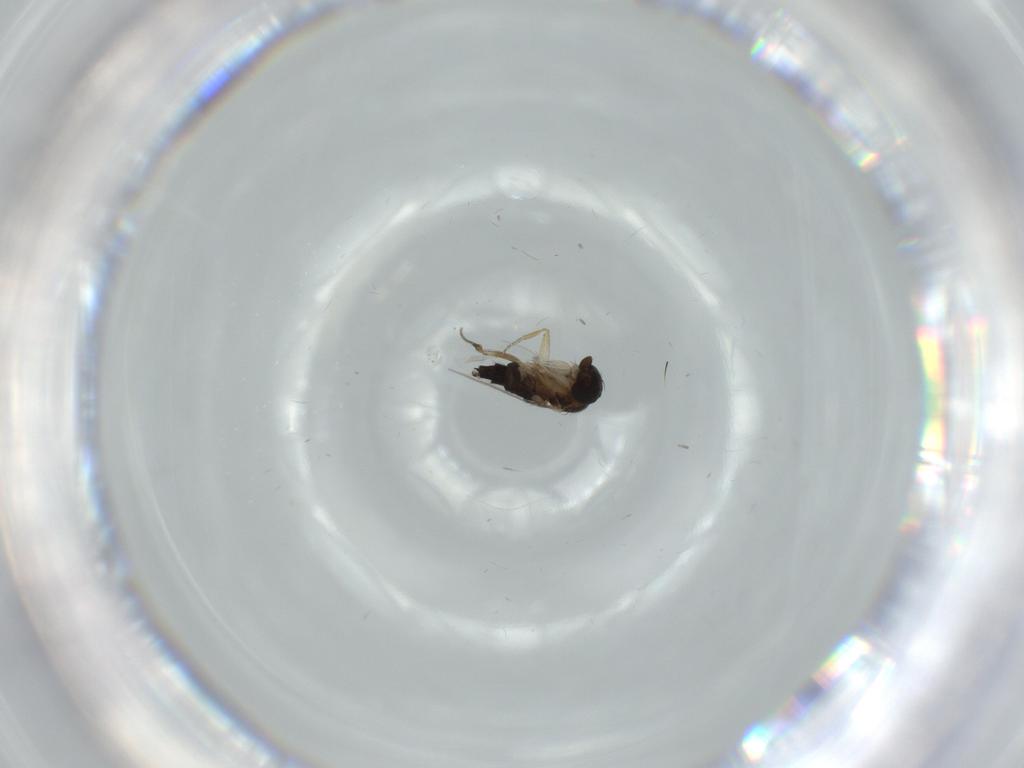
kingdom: Animalia
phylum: Arthropoda
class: Insecta
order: Diptera
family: Cecidomyiidae
